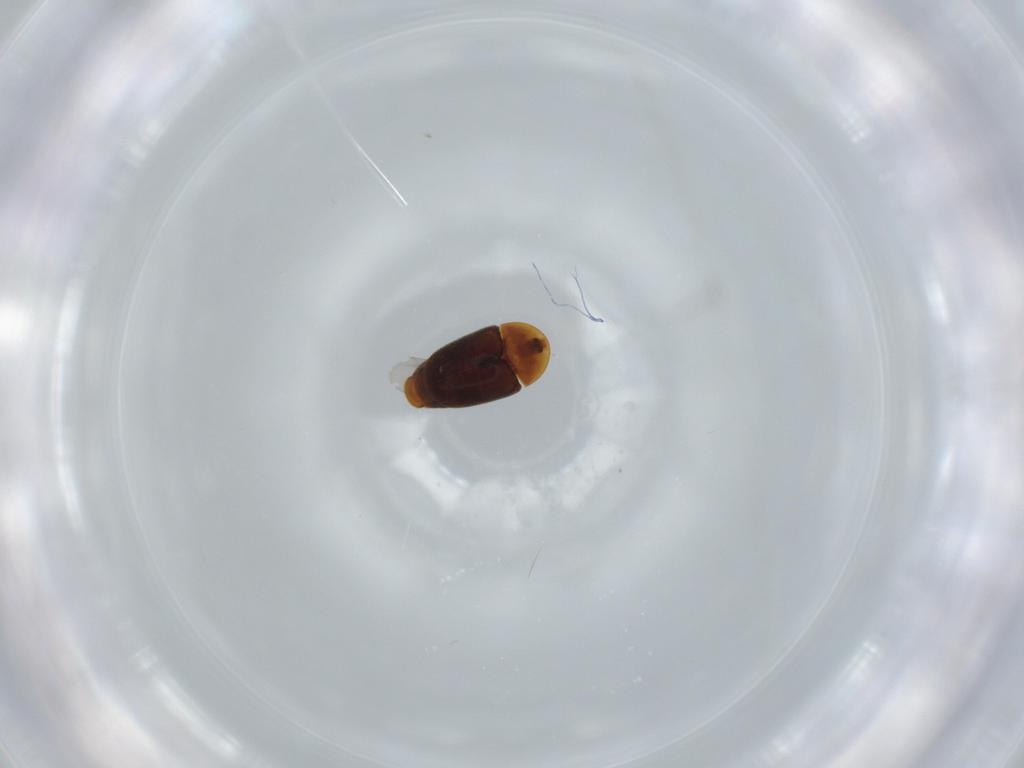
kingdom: Animalia
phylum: Arthropoda
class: Insecta
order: Coleoptera
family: Corylophidae
